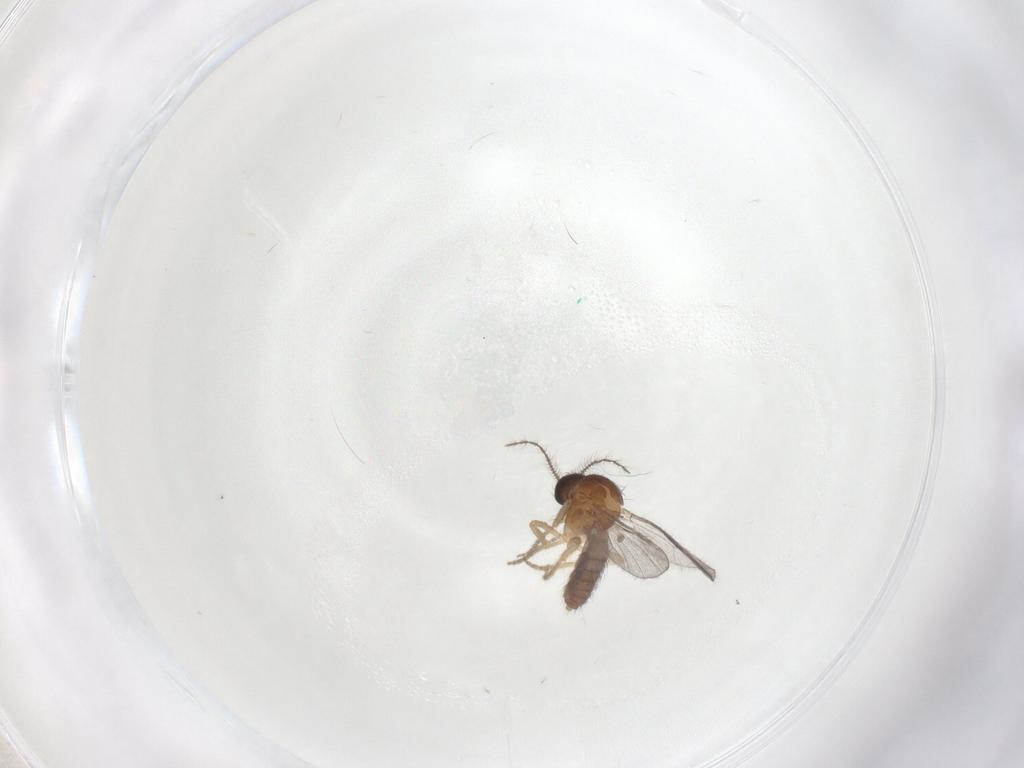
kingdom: Animalia
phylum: Arthropoda
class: Insecta
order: Diptera
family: Ceratopogonidae
